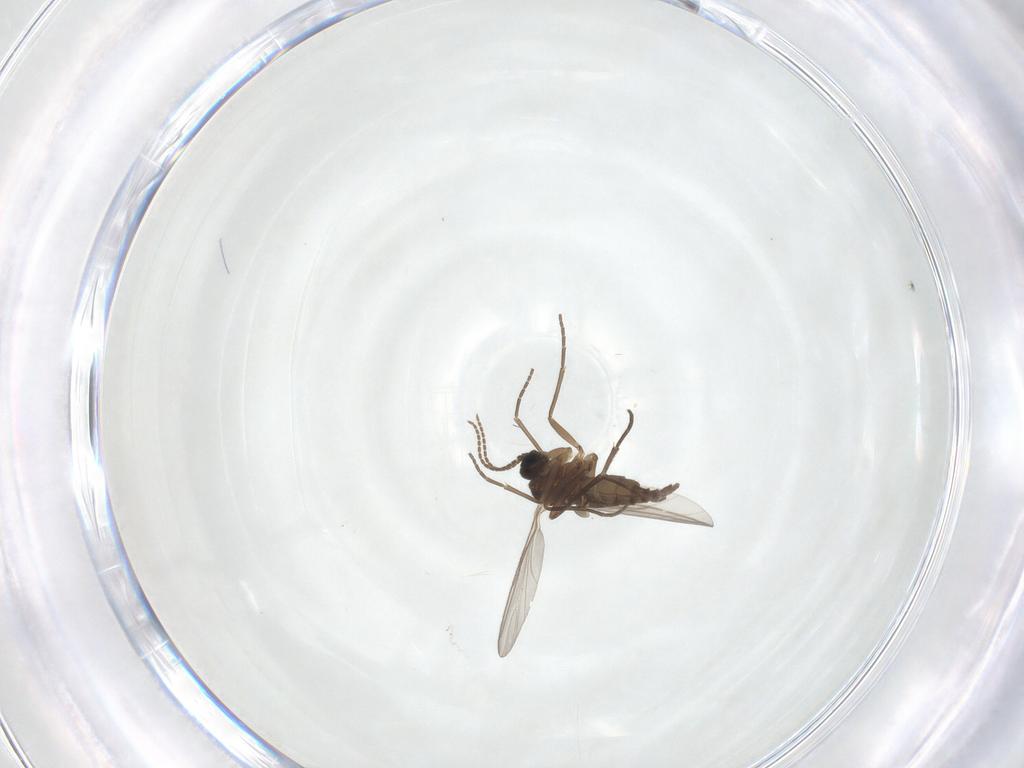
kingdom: Animalia
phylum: Arthropoda
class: Insecta
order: Diptera
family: Sciaridae
